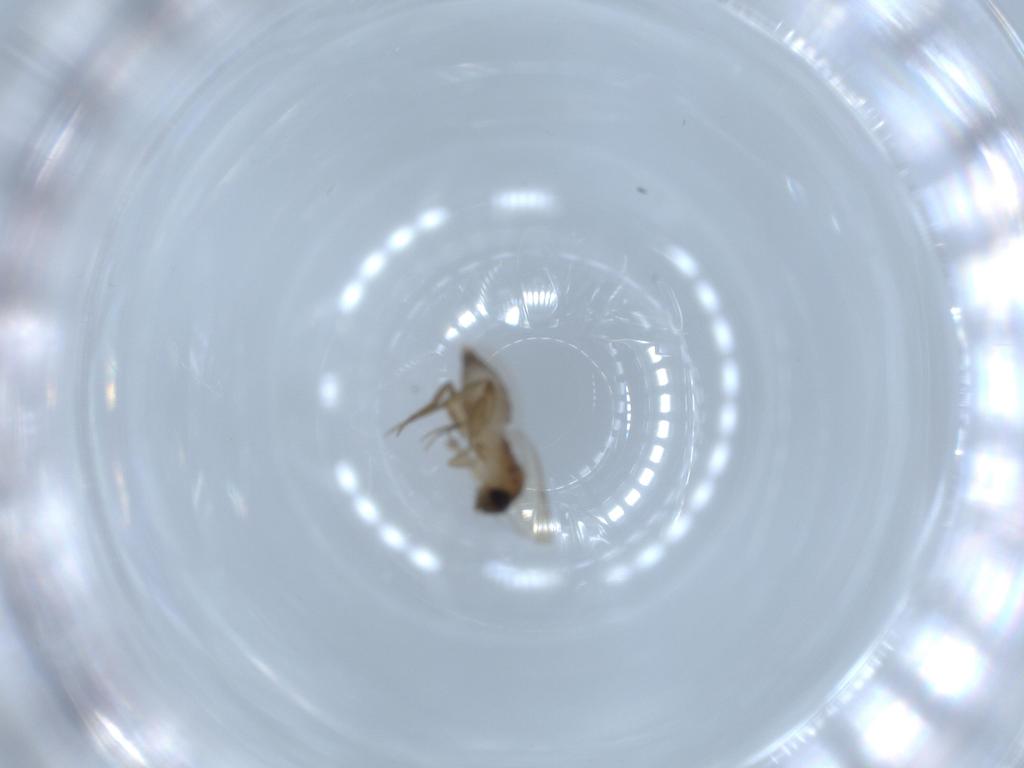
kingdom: Animalia
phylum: Arthropoda
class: Insecta
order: Diptera
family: Phoridae
